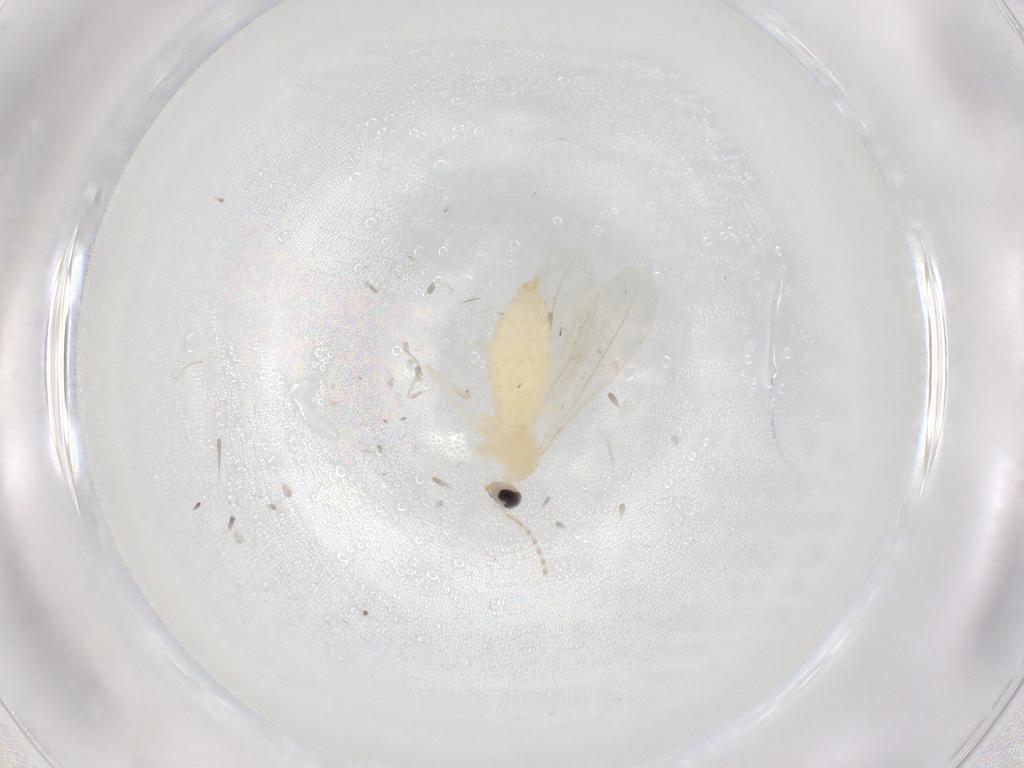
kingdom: Animalia
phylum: Arthropoda
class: Insecta
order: Diptera
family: Cecidomyiidae
